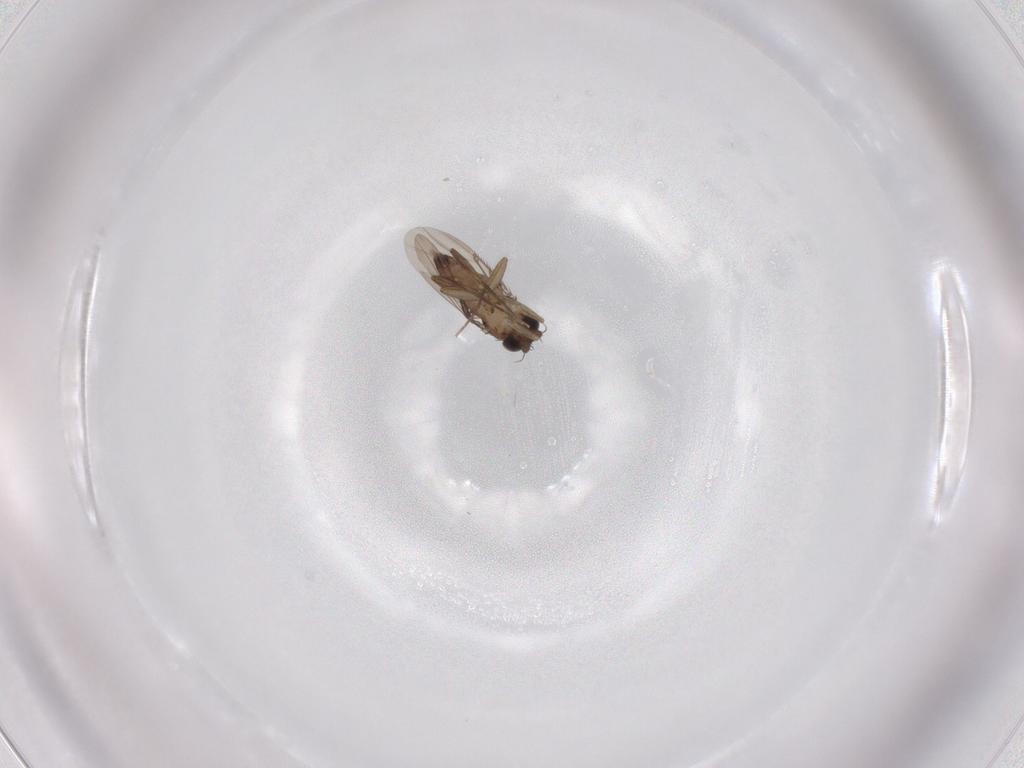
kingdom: Animalia
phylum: Arthropoda
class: Insecta
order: Diptera
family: Phoridae
